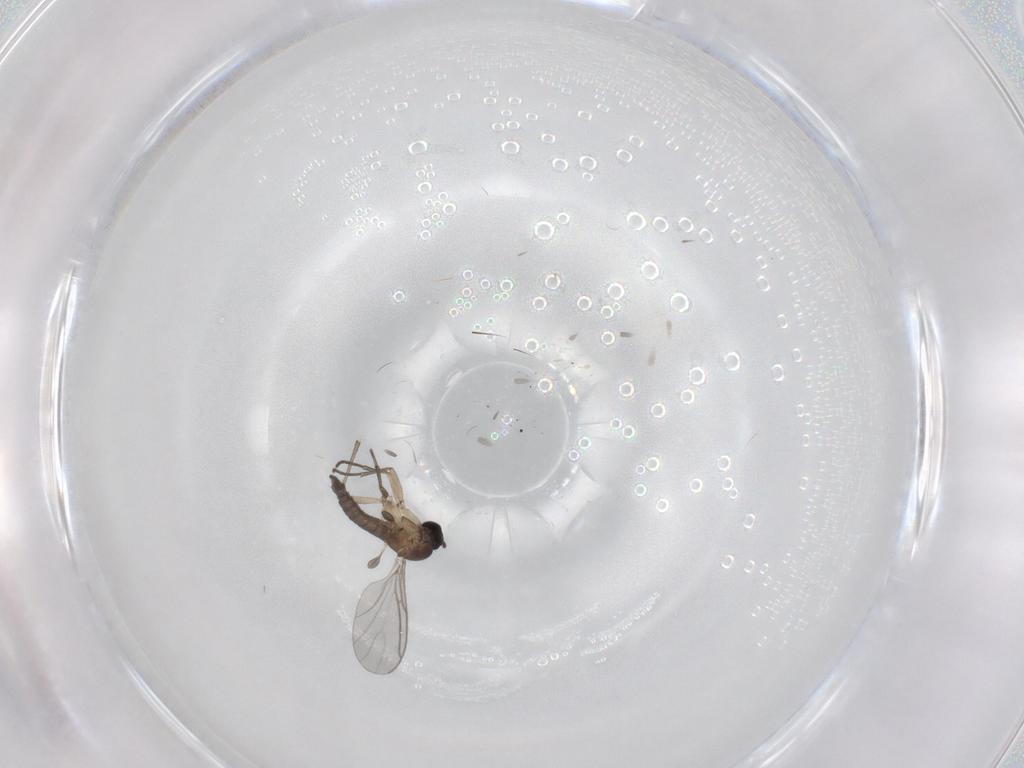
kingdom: Animalia
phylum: Arthropoda
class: Insecta
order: Diptera
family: Sciaridae
